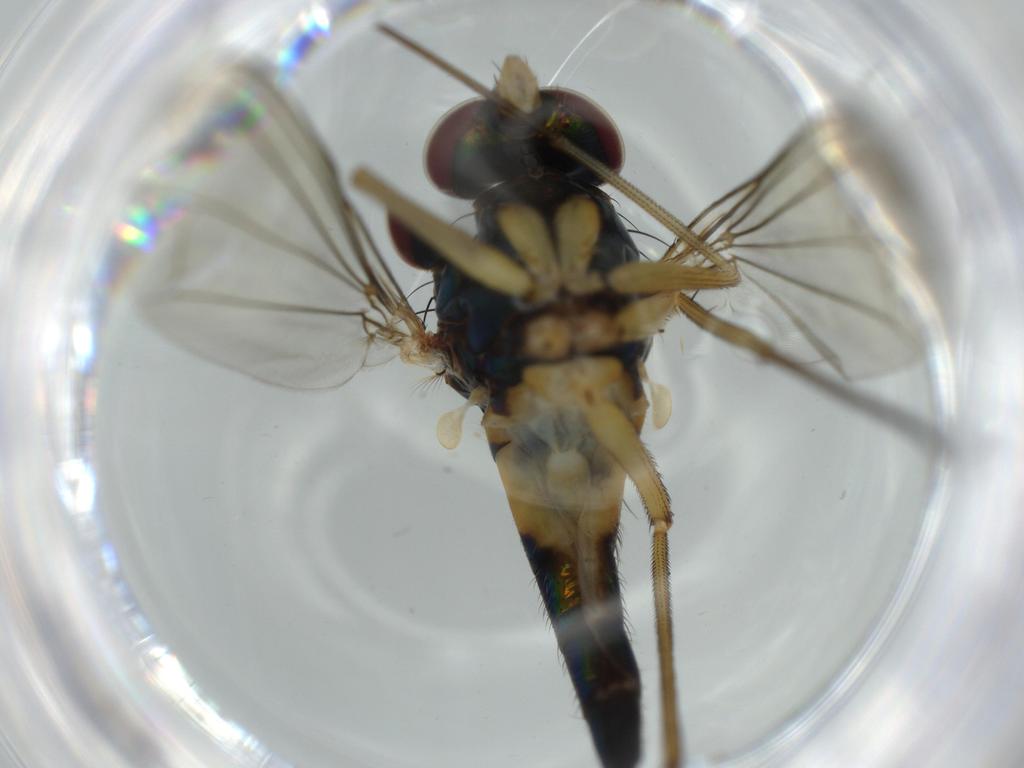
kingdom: Animalia
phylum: Arthropoda
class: Insecta
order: Diptera
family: Dolichopodidae
